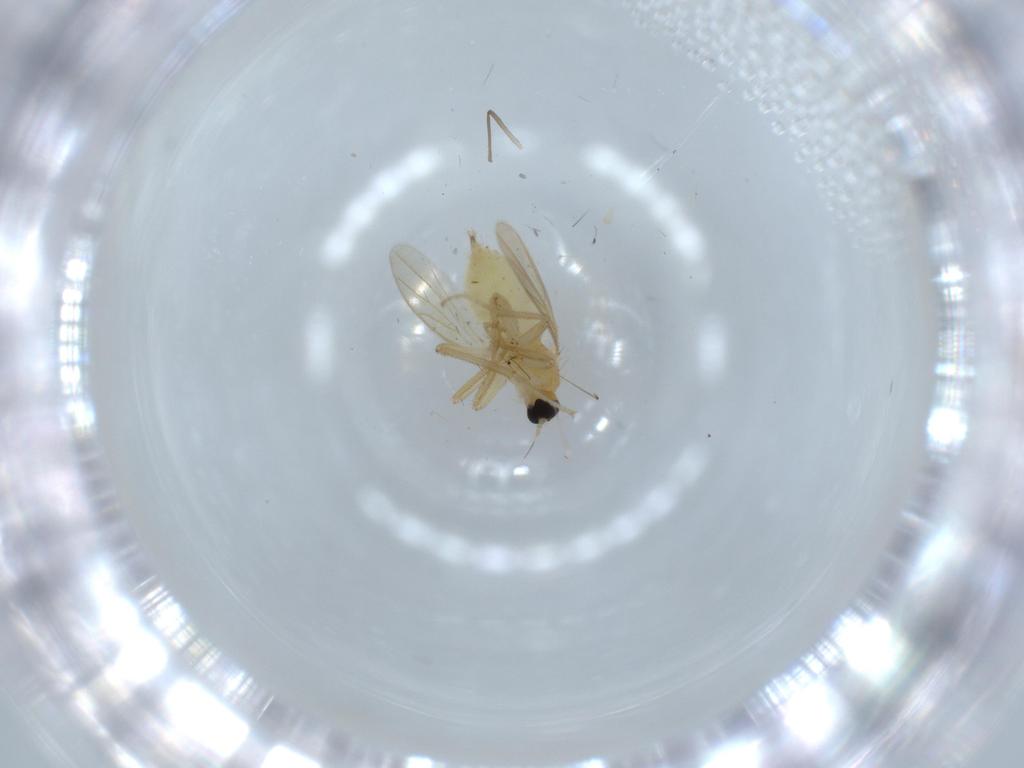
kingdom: Animalia
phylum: Arthropoda
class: Insecta
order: Diptera
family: Hybotidae
